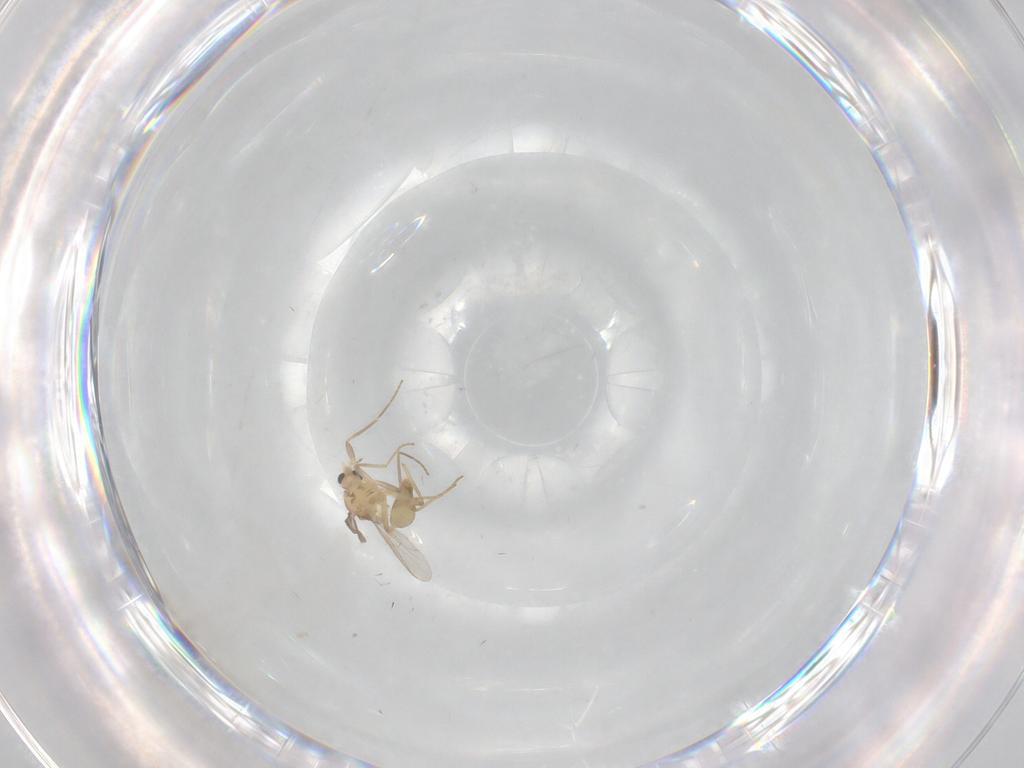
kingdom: Animalia
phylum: Arthropoda
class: Insecta
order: Diptera
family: Chironomidae
